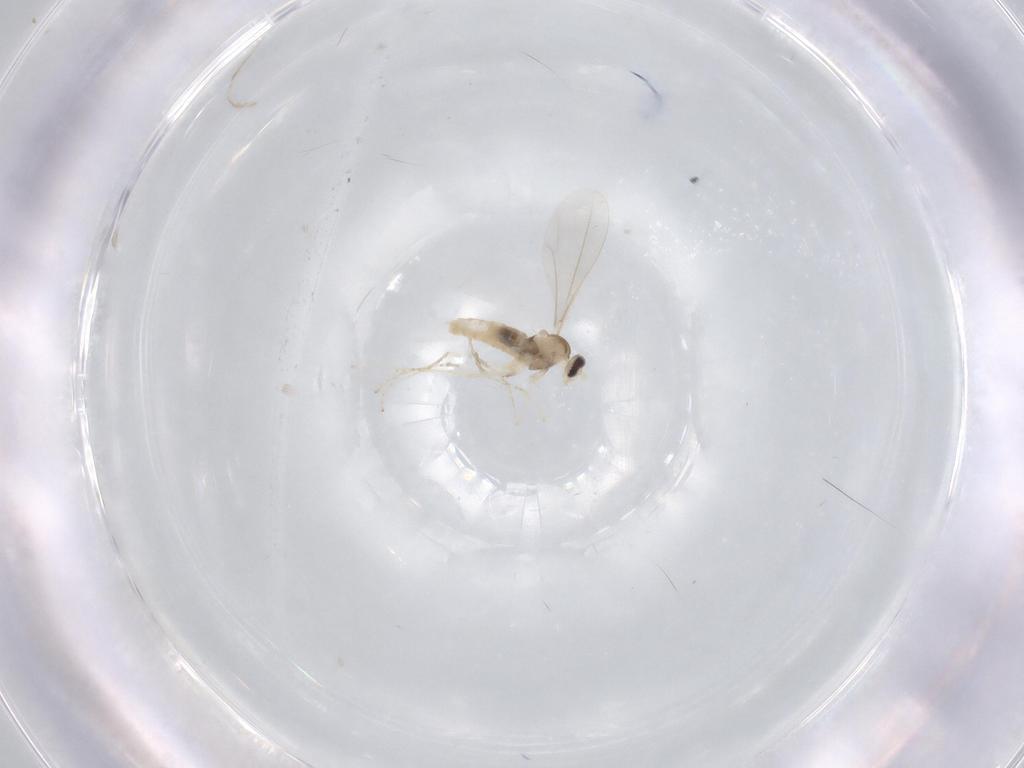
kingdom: Animalia
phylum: Arthropoda
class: Insecta
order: Diptera
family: Cecidomyiidae
